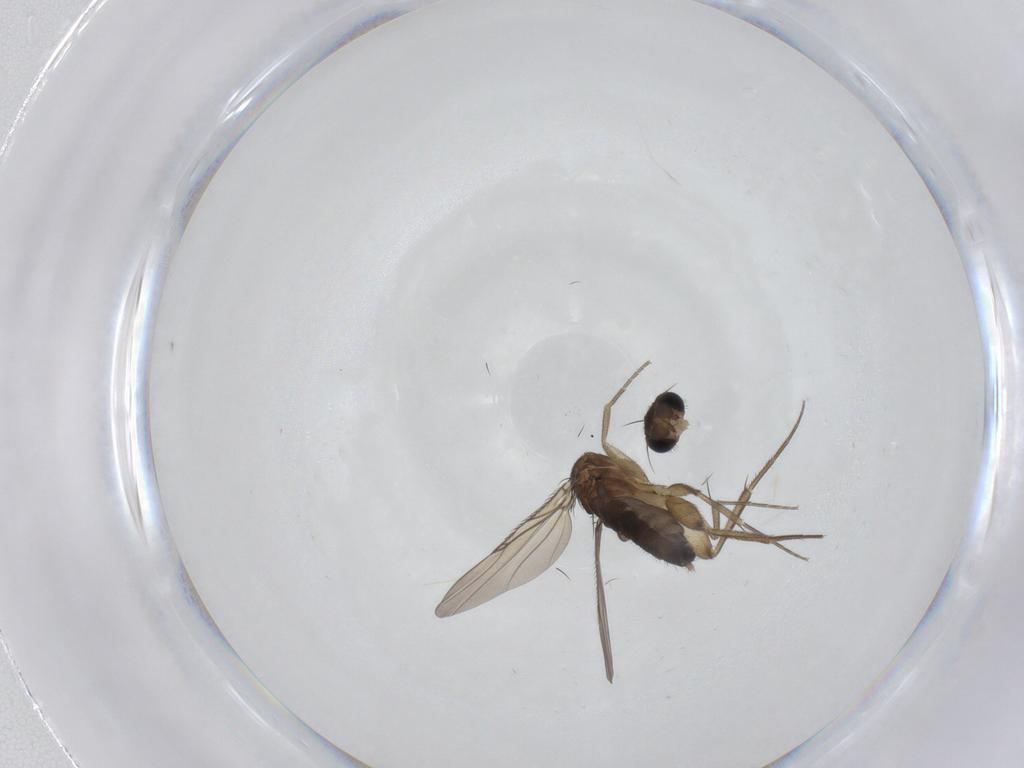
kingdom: Animalia
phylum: Arthropoda
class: Insecta
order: Diptera
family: Phoridae
